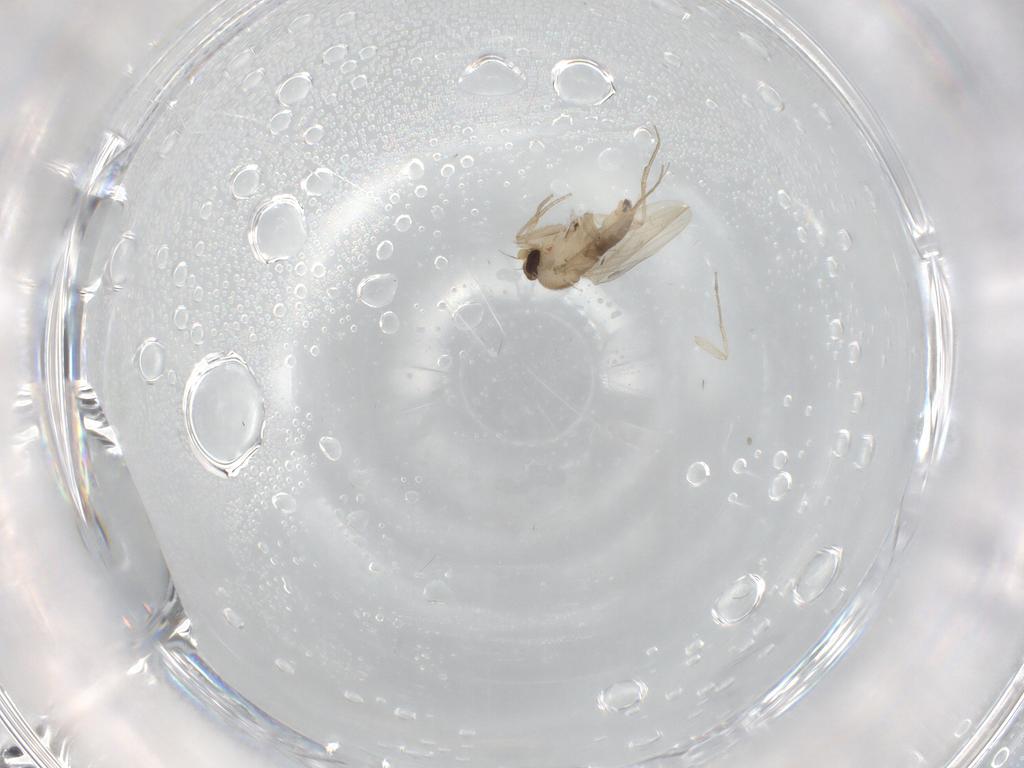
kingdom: Animalia
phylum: Arthropoda
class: Insecta
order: Diptera
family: Phoridae
